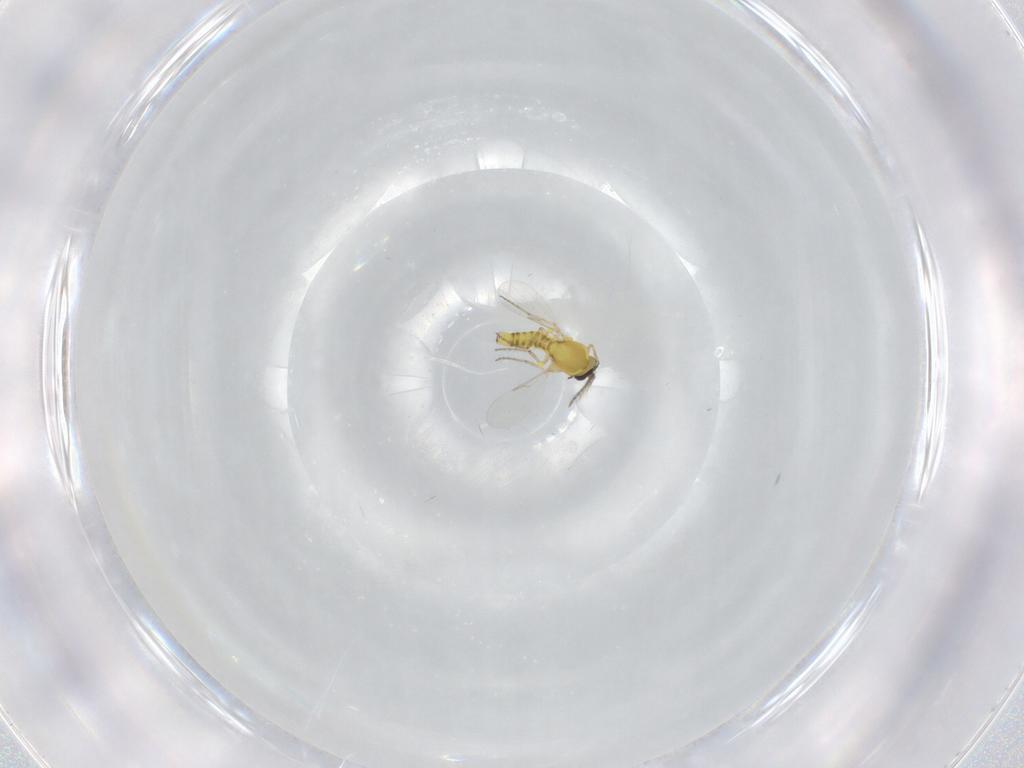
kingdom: Animalia
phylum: Arthropoda
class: Insecta
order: Diptera
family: Ceratopogonidae
